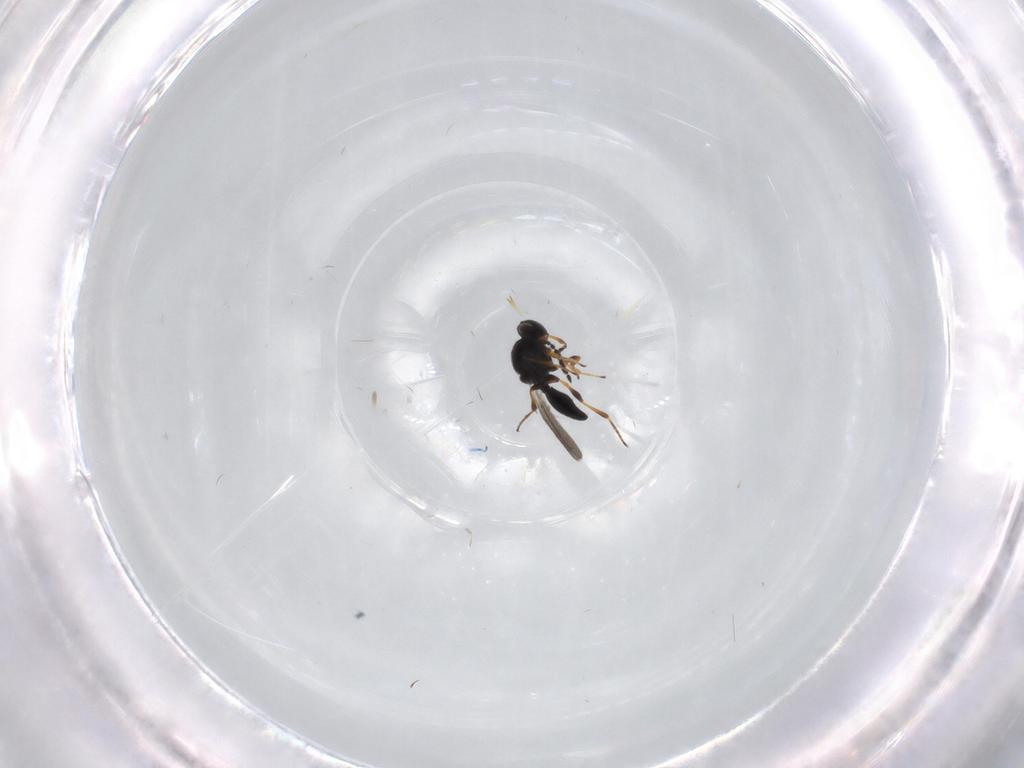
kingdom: Animalia
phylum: Arthropoda
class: Insecta
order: Hymenoptera
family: Platygastridae
